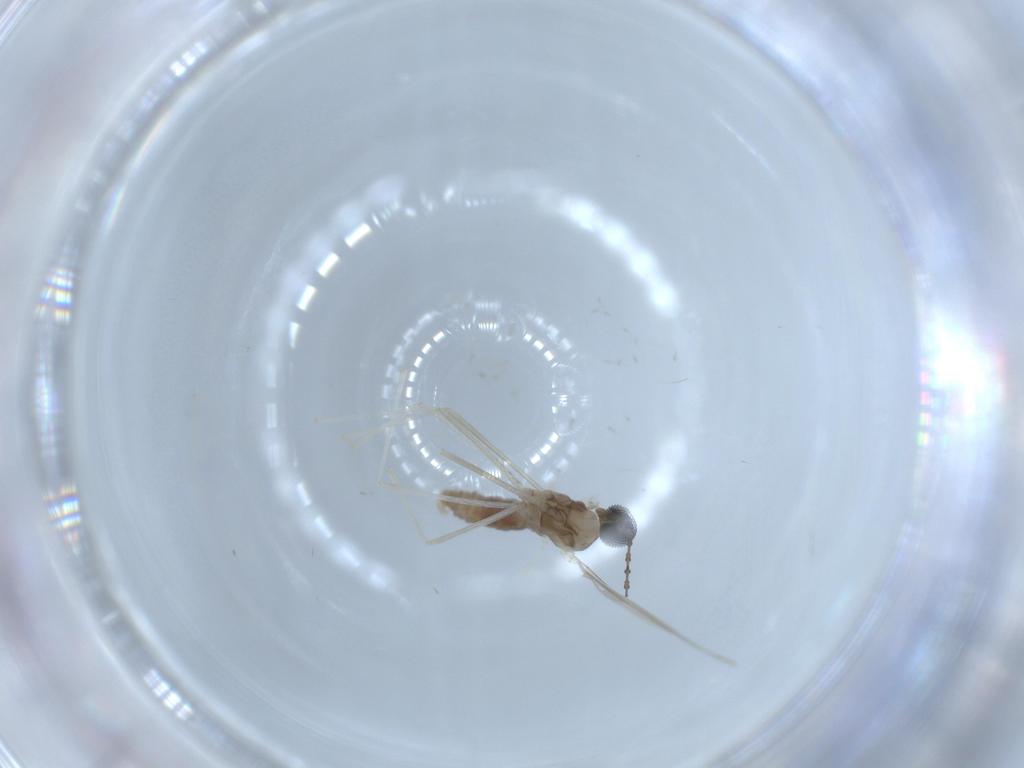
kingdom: Animalia
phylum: Arthropoda
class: Insecta
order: Diptera
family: Cecidomyiidae
